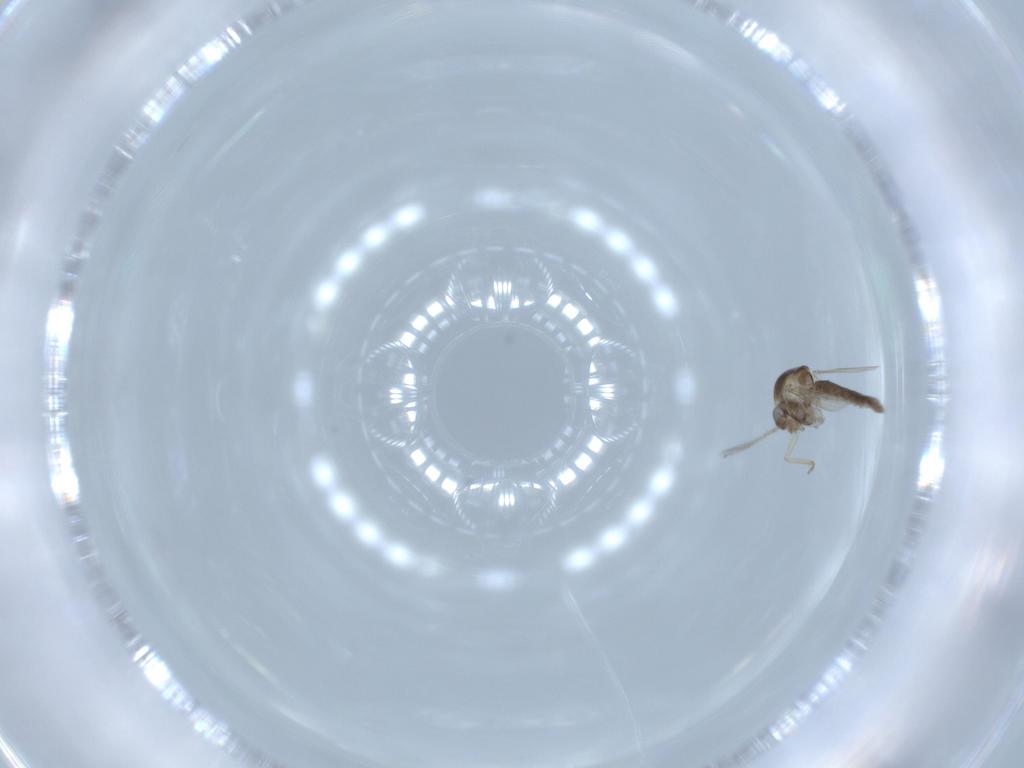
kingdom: Animalia
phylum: Arthropoda
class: Insecta
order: Diptera
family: Ceratopogonidae
